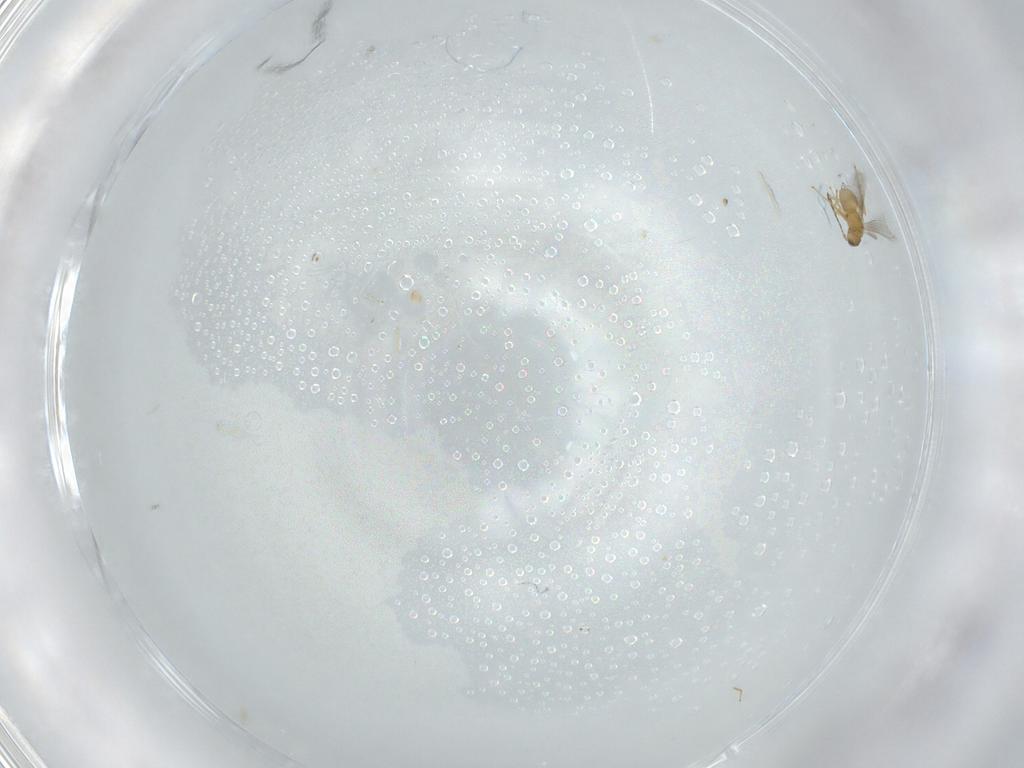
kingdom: Animalia
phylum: Arthropoda
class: Insecta
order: Hymenoptera
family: Mymaridae
